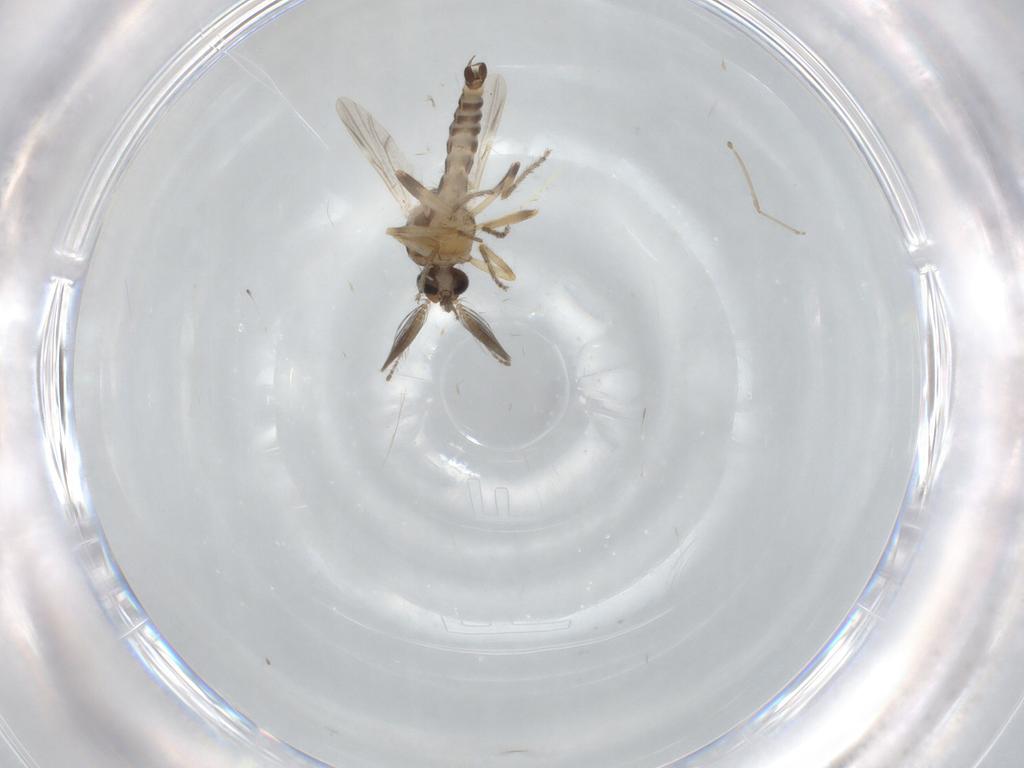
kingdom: Animalia
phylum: Arthropoda
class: Insecta
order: Diptera
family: Ceratopogonidae
